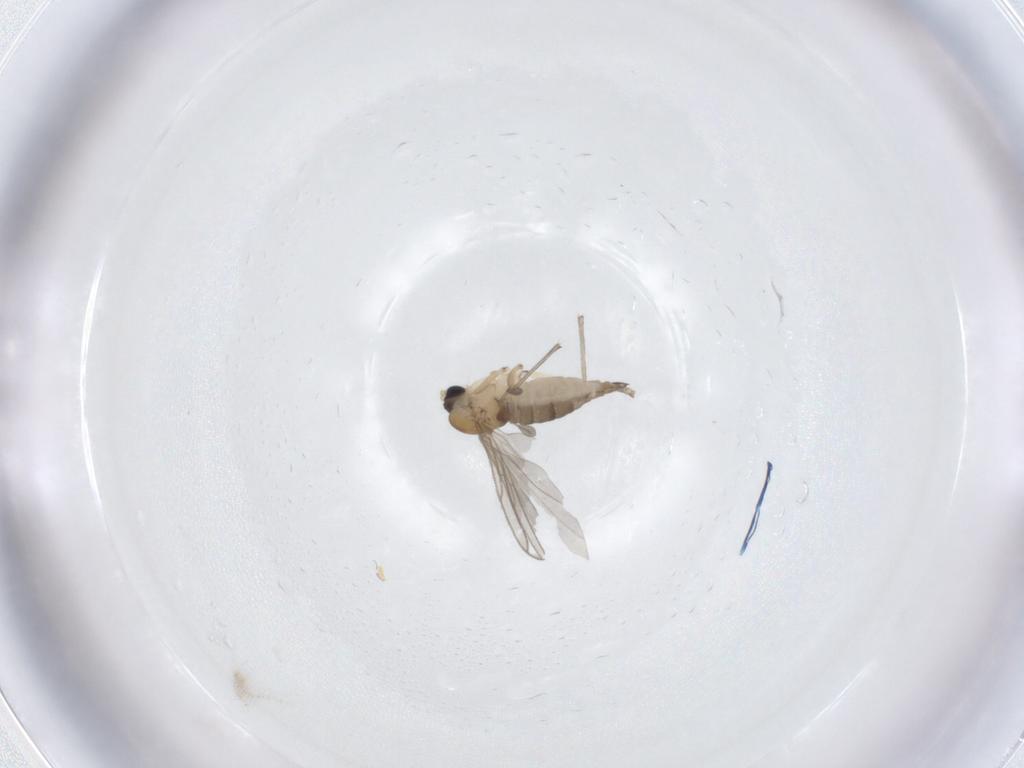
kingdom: Animalia
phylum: Arthropoda
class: Insecta
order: Diptera
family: Sciaridae
